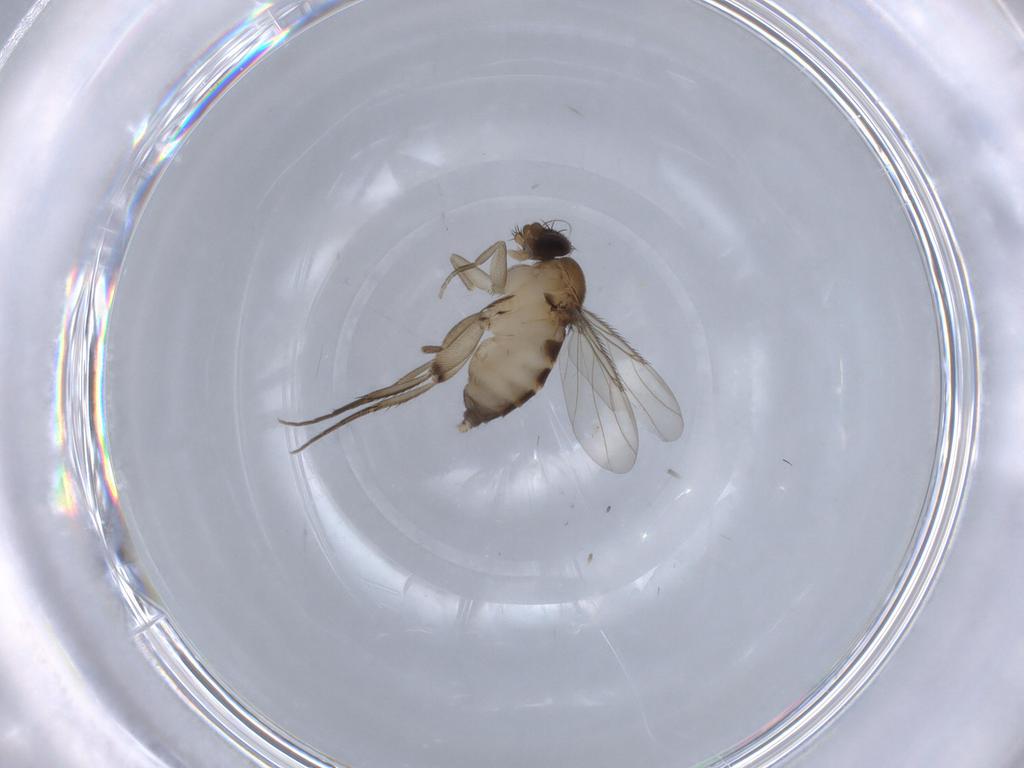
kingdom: Animalia
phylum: Arthropoda
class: Insecta
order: Diptera
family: Phoridae
